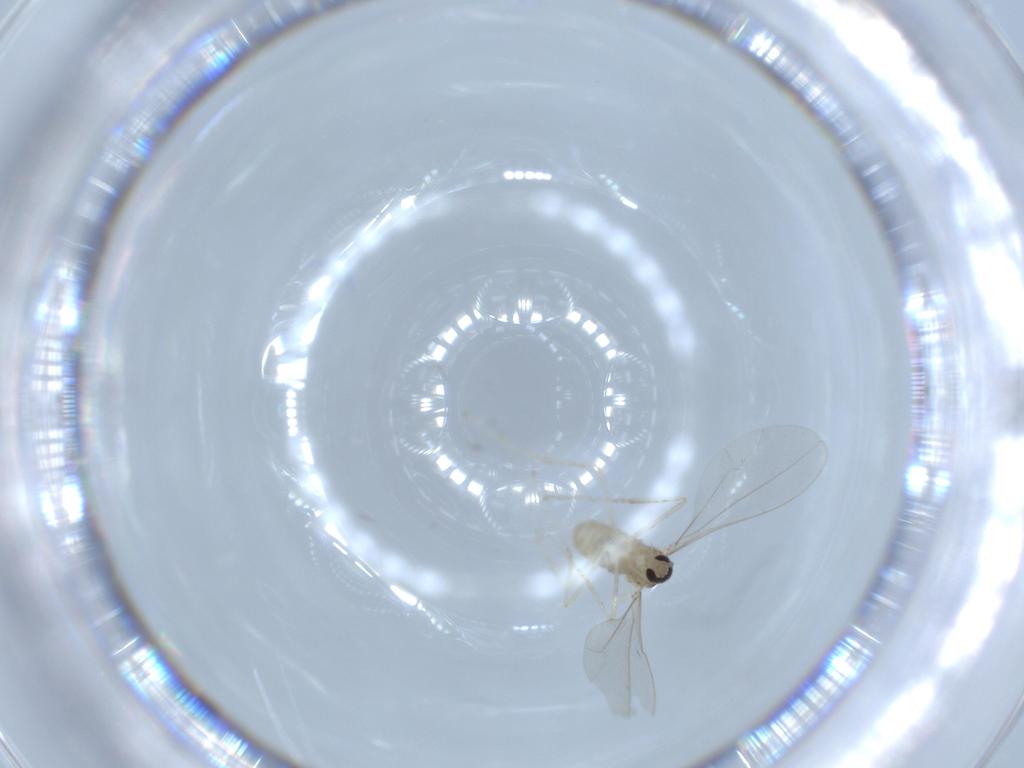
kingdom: Animalia
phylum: Arthropoda
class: Insecta
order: Diptera
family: Cecidomyiidae
